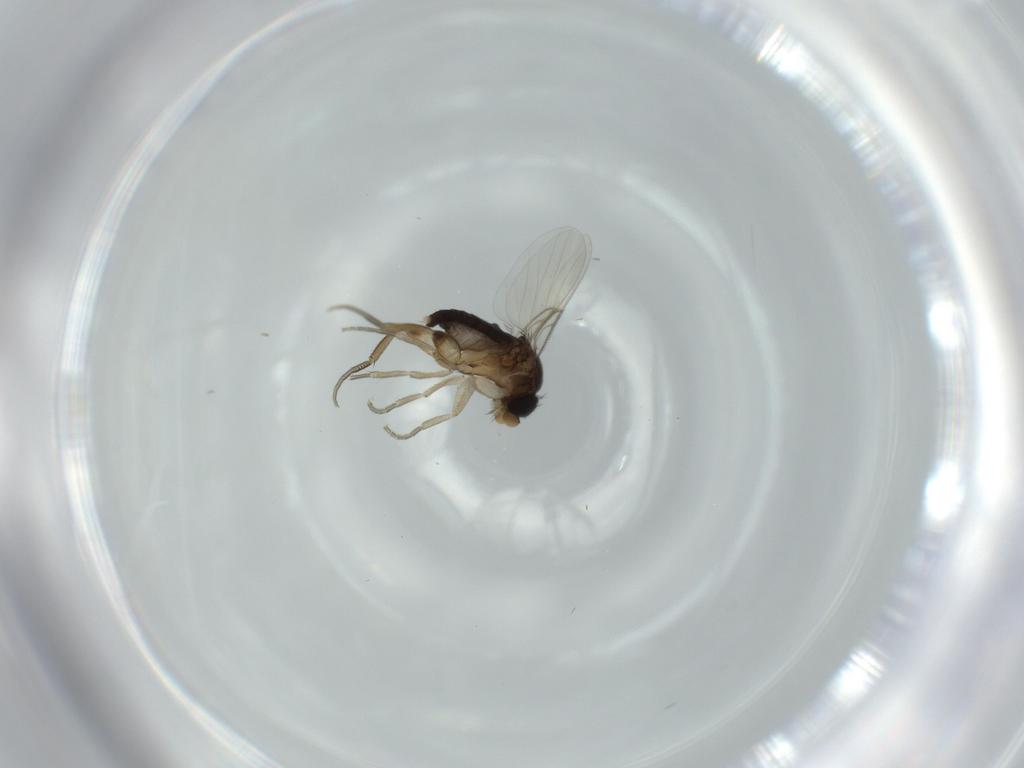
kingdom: Animalia
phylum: Arthropoda
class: Insecta
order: Diptera
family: Phoridae
